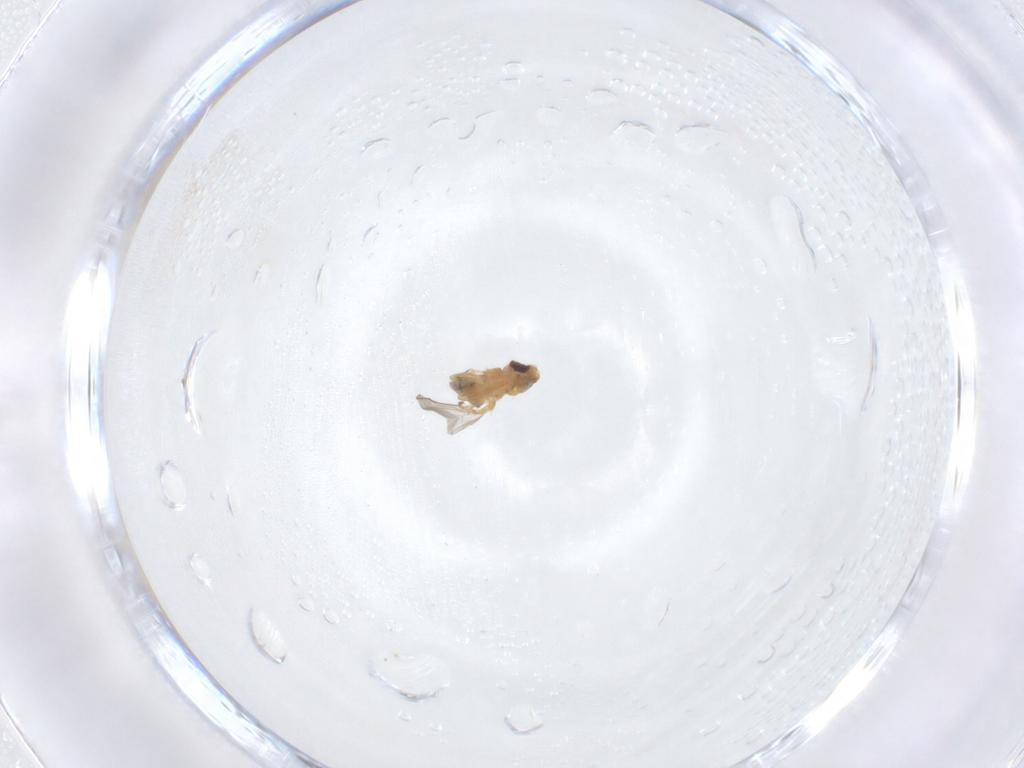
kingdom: Animalia
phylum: Arthropoda
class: Insecta
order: Diptera
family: Chloropidae
